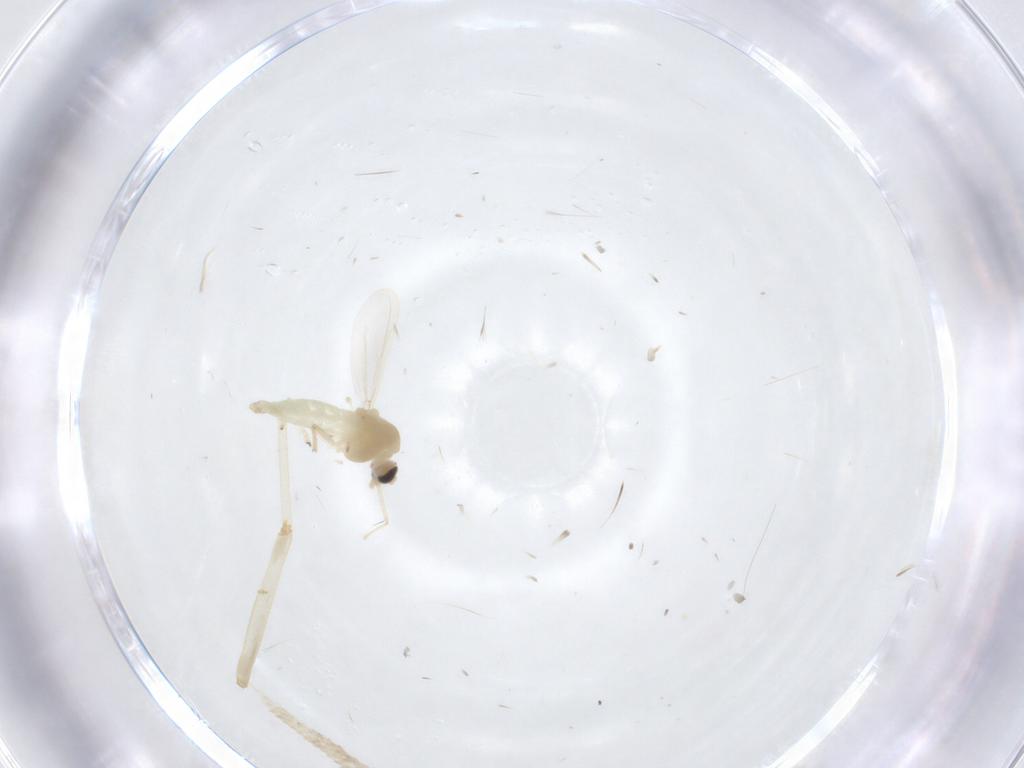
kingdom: Animalia
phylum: Arthropoda
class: Insecta
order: Diptera
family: Chironomidae
